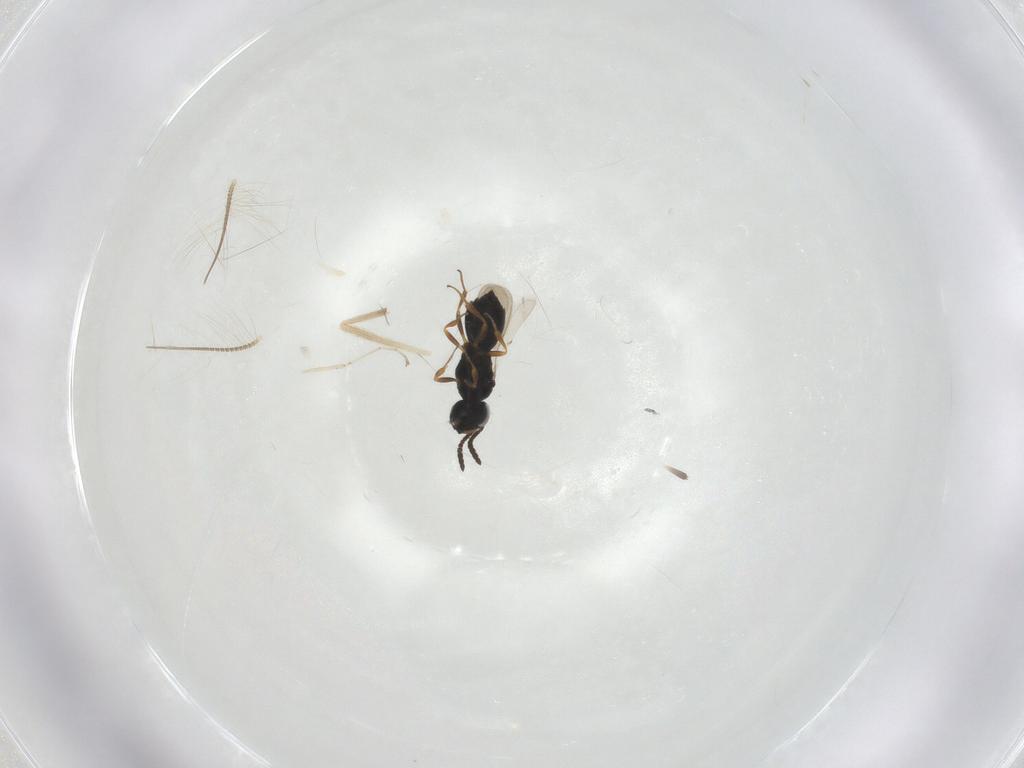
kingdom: Animalia
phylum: Arthropoda
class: Insecta
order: Hymenoptera
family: Scelionidae
